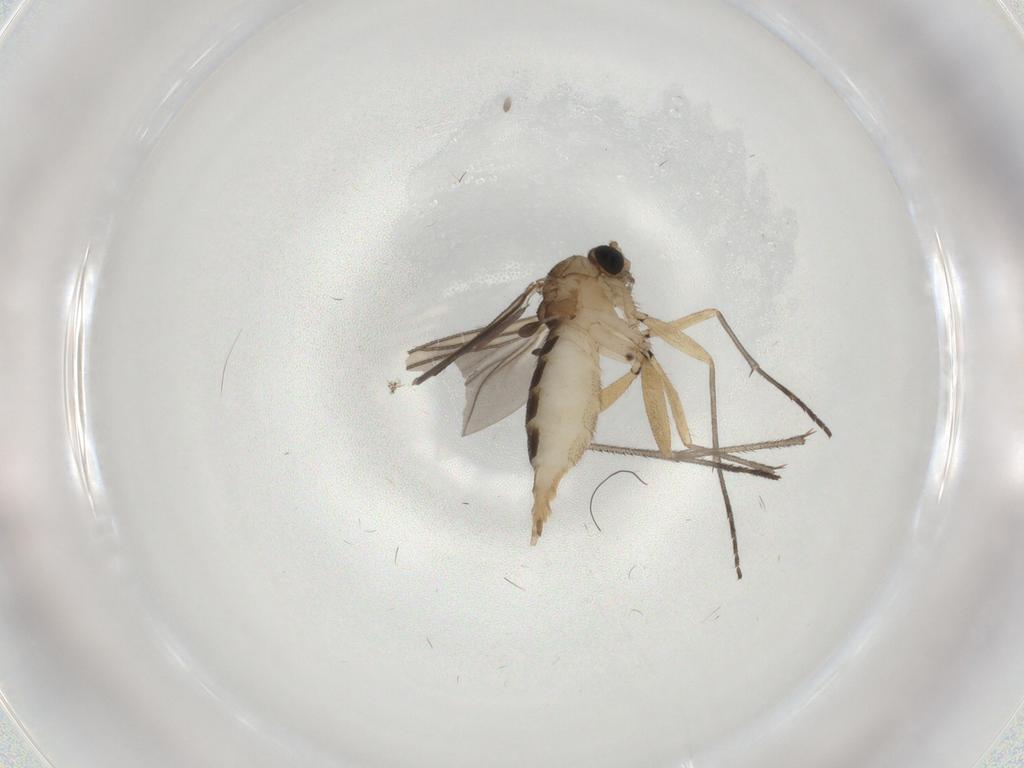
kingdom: Animalia
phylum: Arthropoda
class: Insecta
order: Diptera
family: Sciaridae
